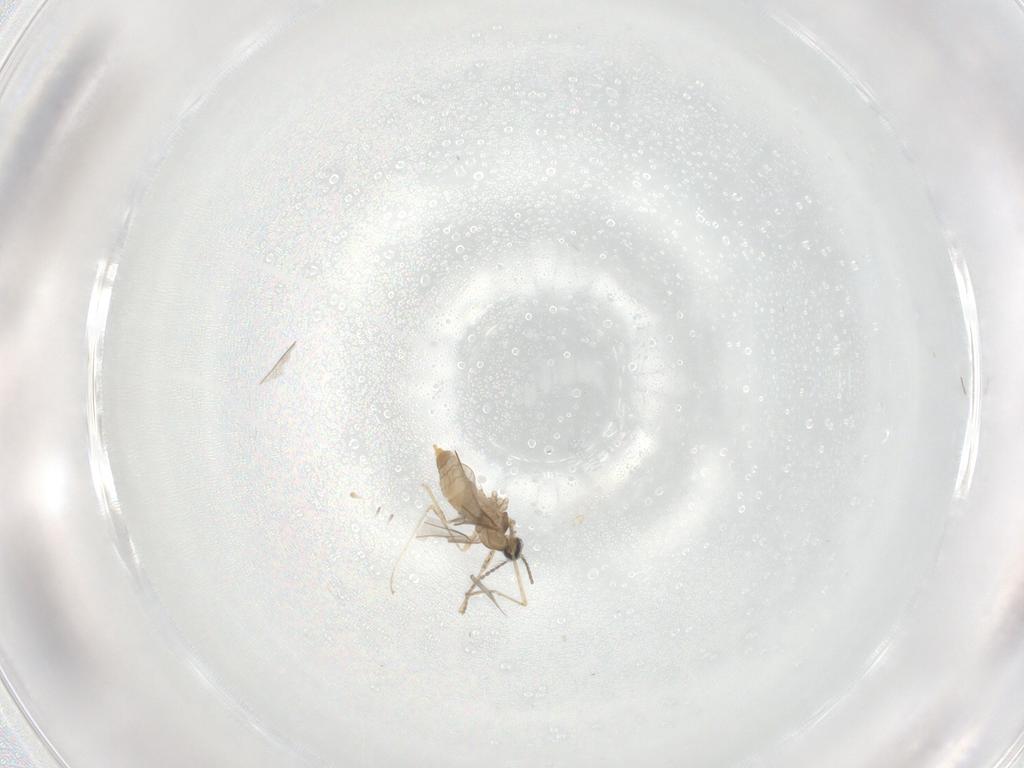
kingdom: Animalia
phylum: Arthropoda
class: Insecta
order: Diptera
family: Cecidomyiidae
